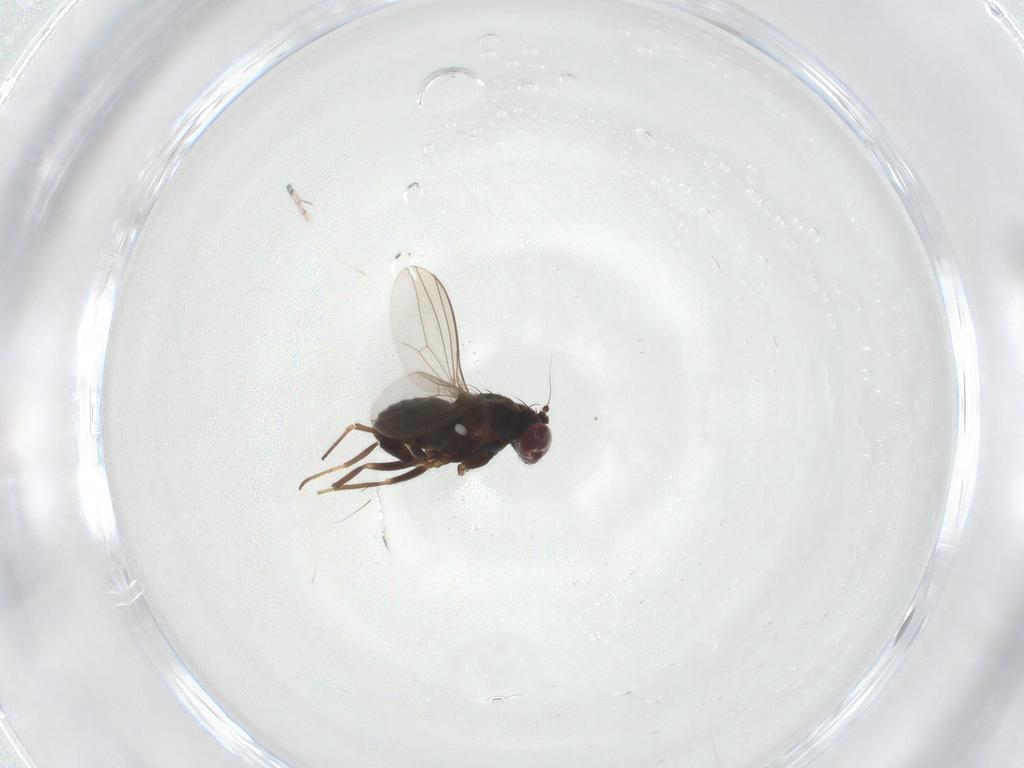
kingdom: Animalia
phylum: Arthropoda
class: Insecta
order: Diptera
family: Dolichopodidae
